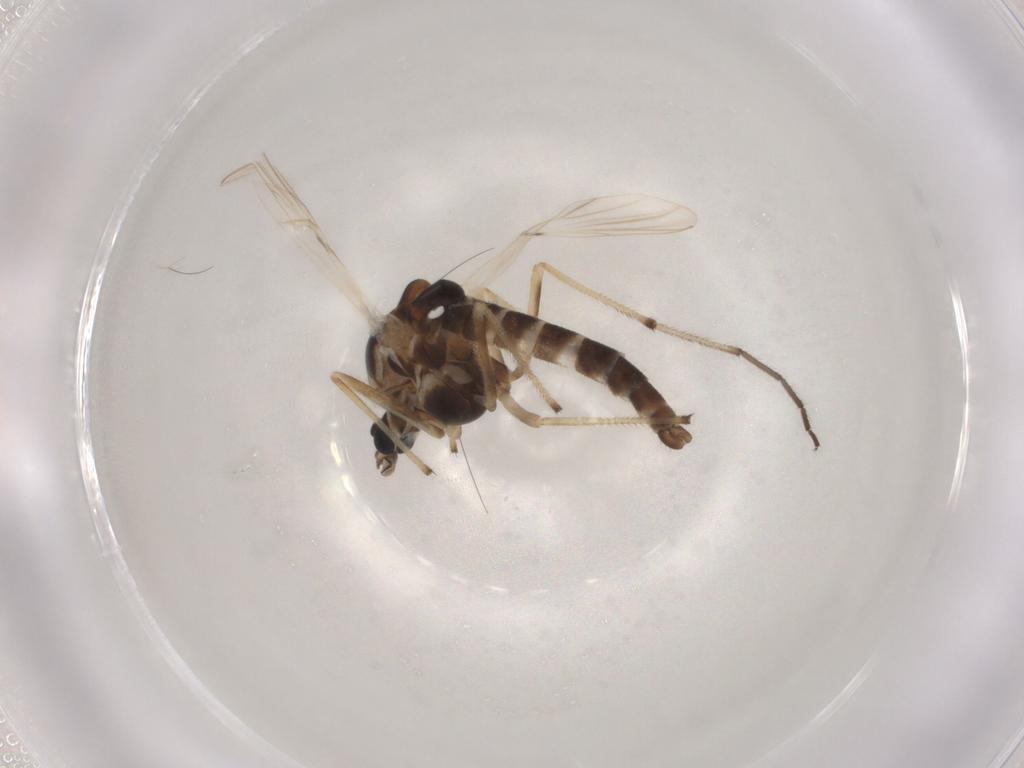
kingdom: Animalia
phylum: Arthropoda
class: Insecta
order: Diptera
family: Chironomidae
